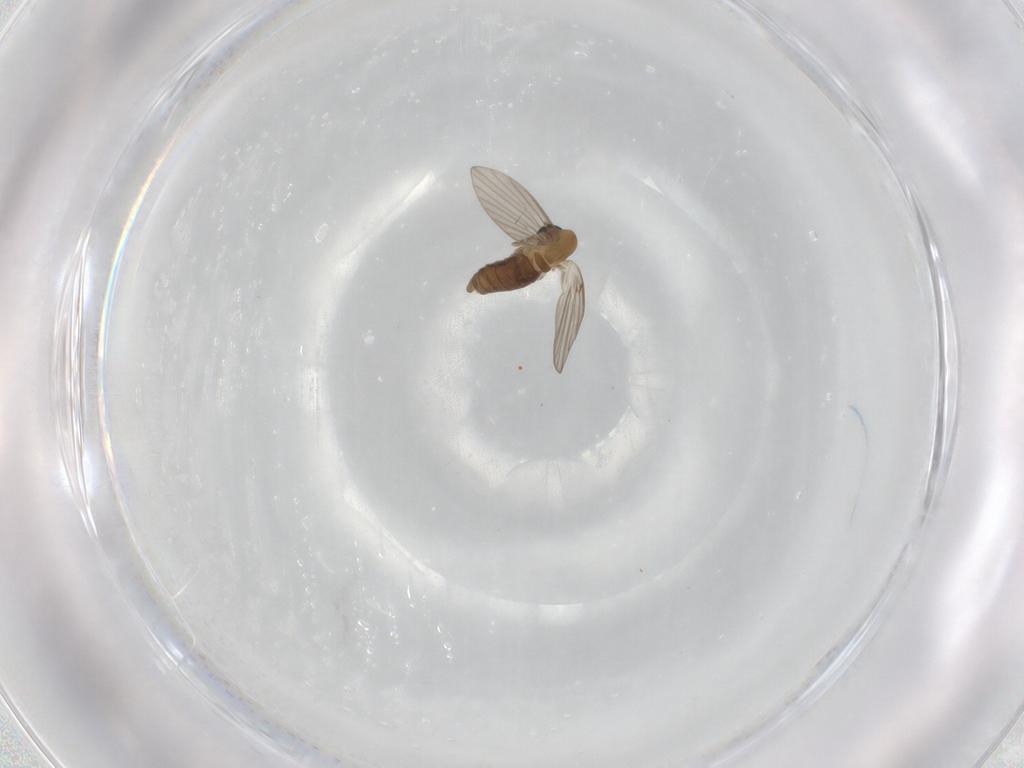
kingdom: Animalia
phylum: Arthropoda
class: Insecta
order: Diptera
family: Psychodidae
